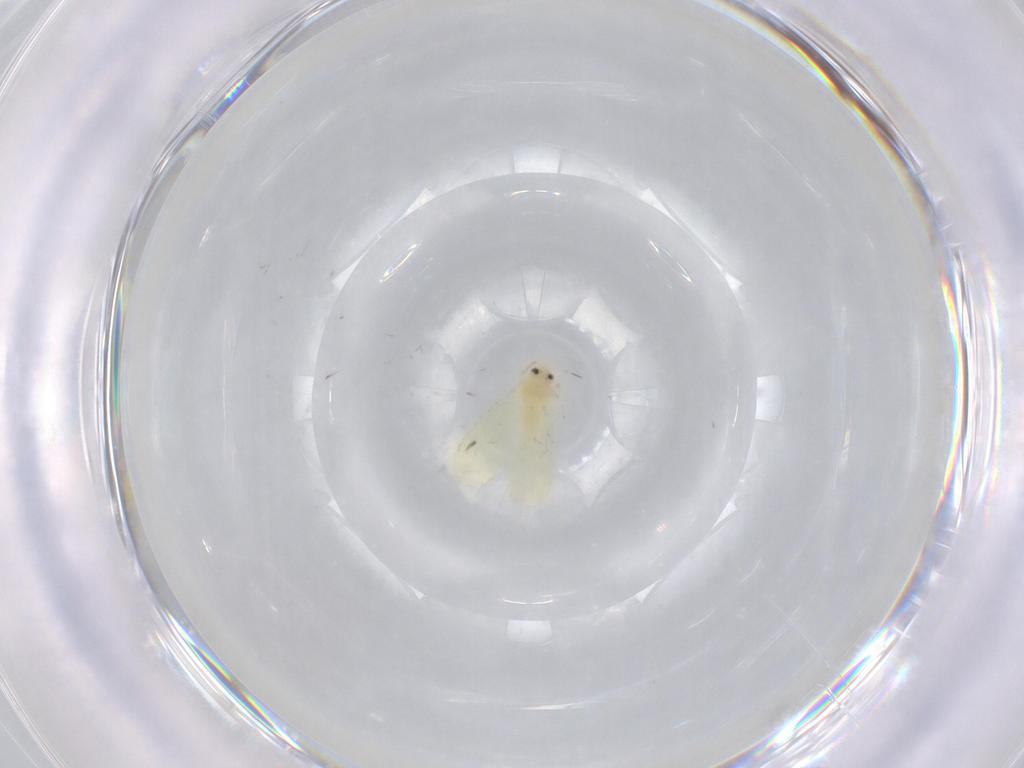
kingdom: Animalia
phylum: Arthropoda
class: Insecta
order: Hemiptera
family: Aleyrodidae
